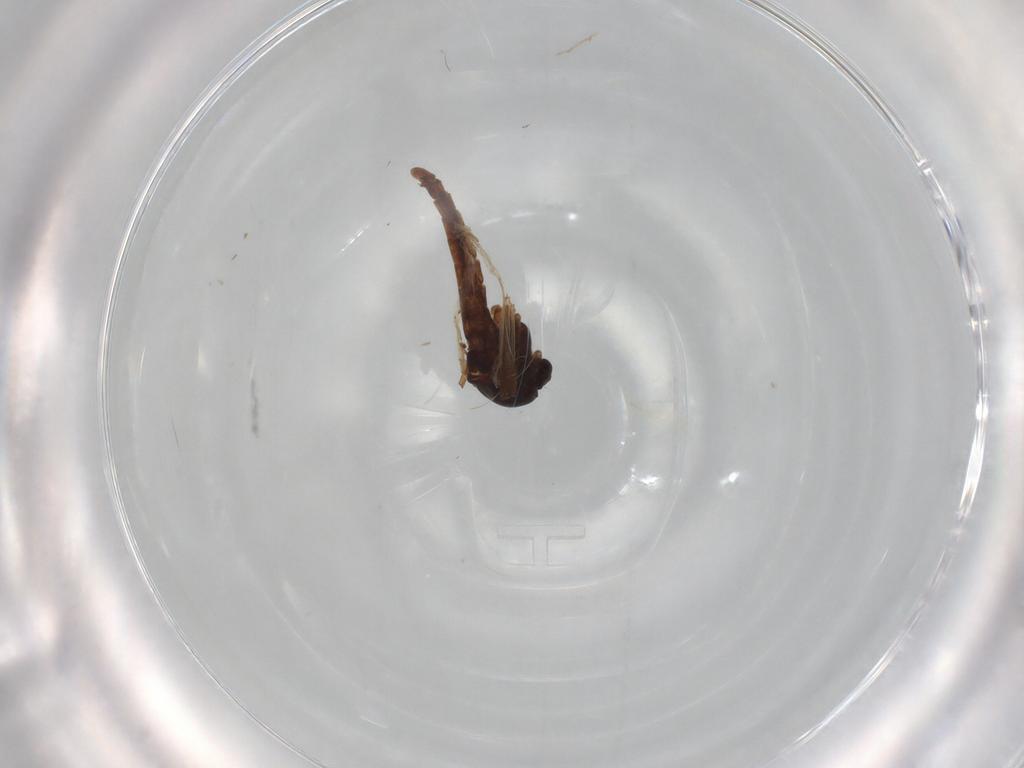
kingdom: Animalia
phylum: Arthropoda
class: Insecta
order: Diptera
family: Chironomidae
